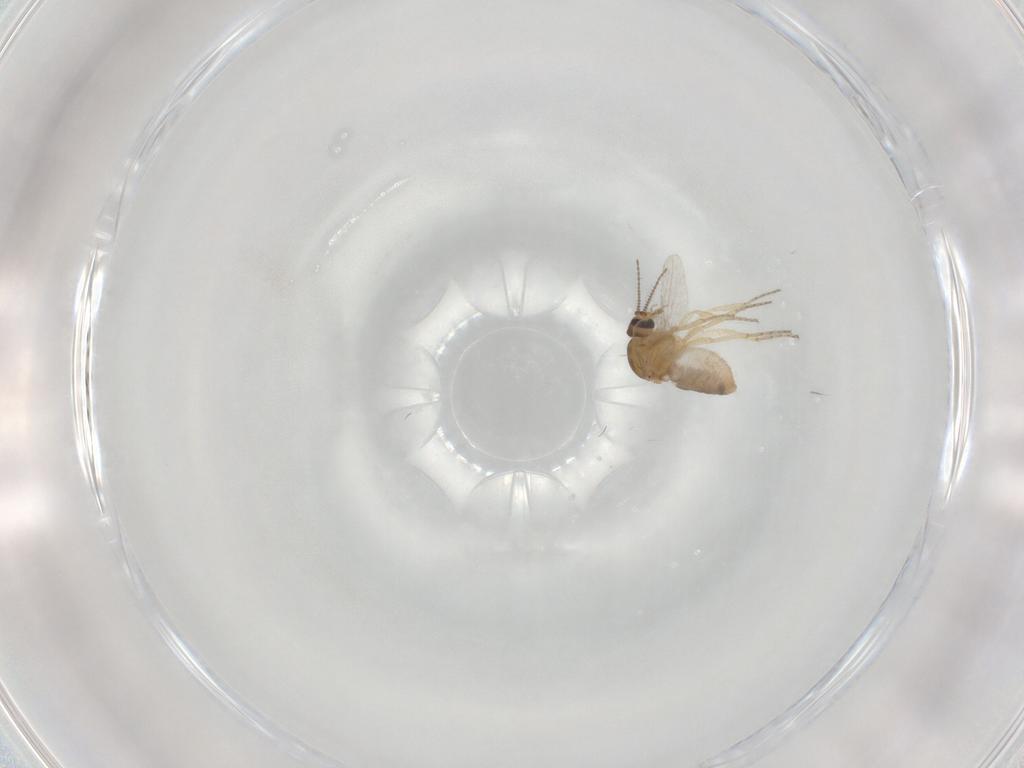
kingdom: Animalia
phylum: Arthropoda
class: Insecta
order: Diptera
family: Ceratopogonidae
